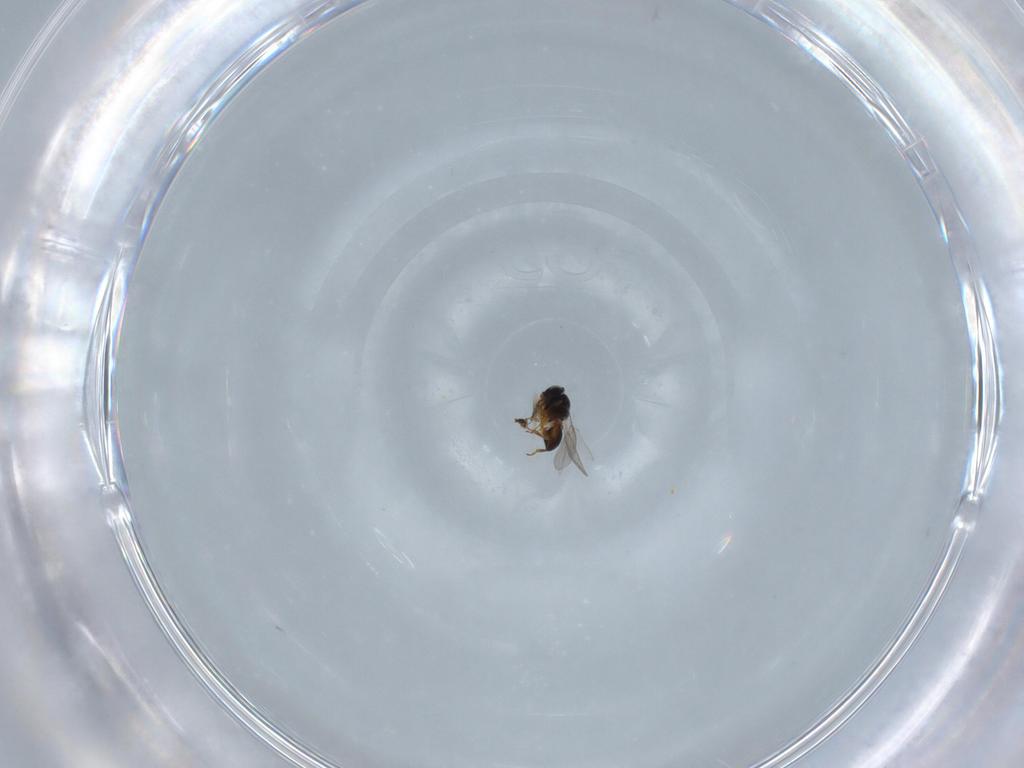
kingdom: Animalia
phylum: Arthropoda
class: Insecta
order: Hymenoptera
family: Platygastridae
